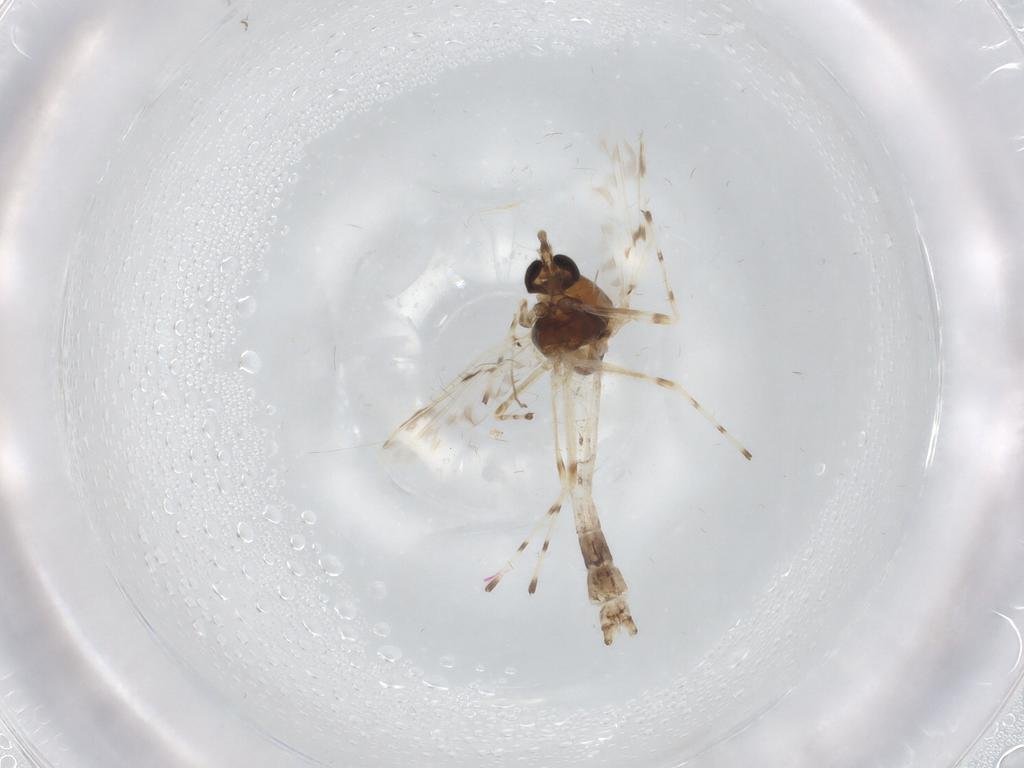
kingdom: Animalia
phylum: Arthropoda
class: Insecta
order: Diptera
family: Chironomidae
